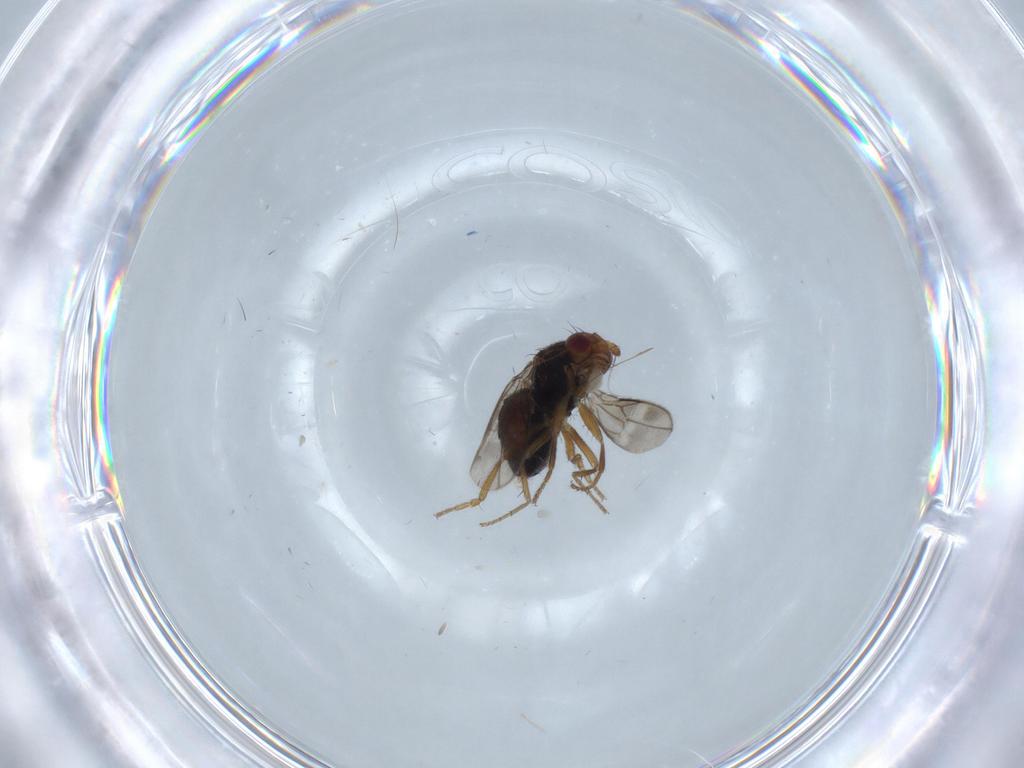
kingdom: Animalia
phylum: Arthropoda
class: Insecta
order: Diptera
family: Sphaeroceridae
